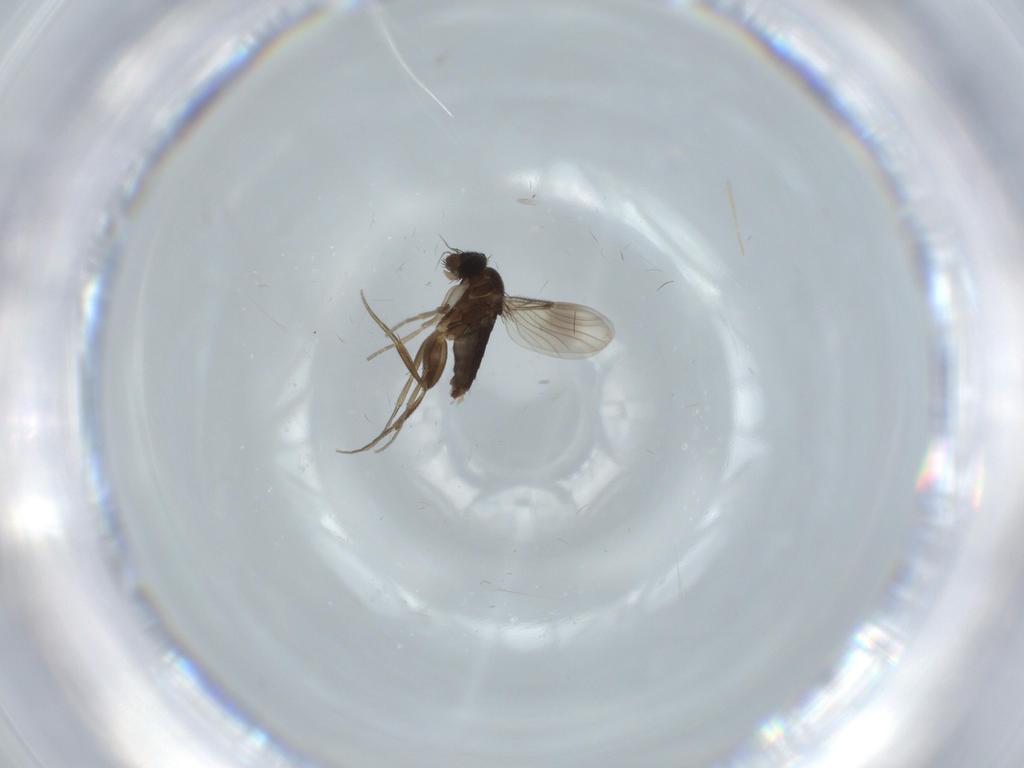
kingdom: Animalia
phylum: Arthropoda
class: Insecta
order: Diptera
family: Phoridae
